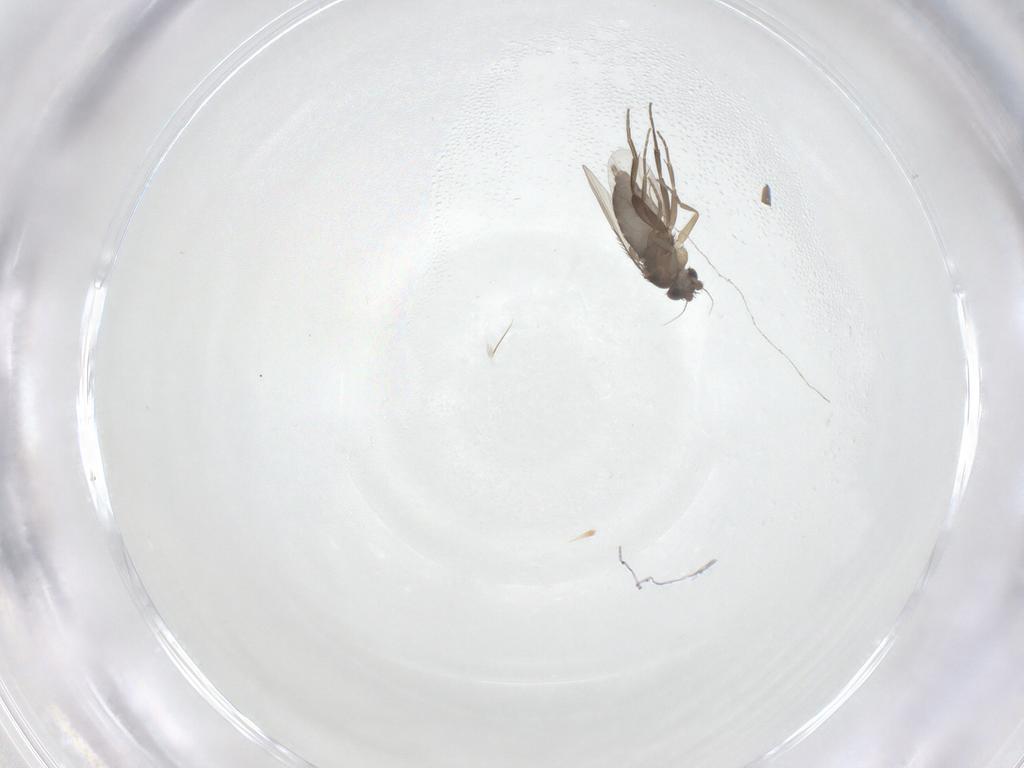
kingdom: Animalia
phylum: Arthropoda
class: Insecta
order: Diptera
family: Phoridae
